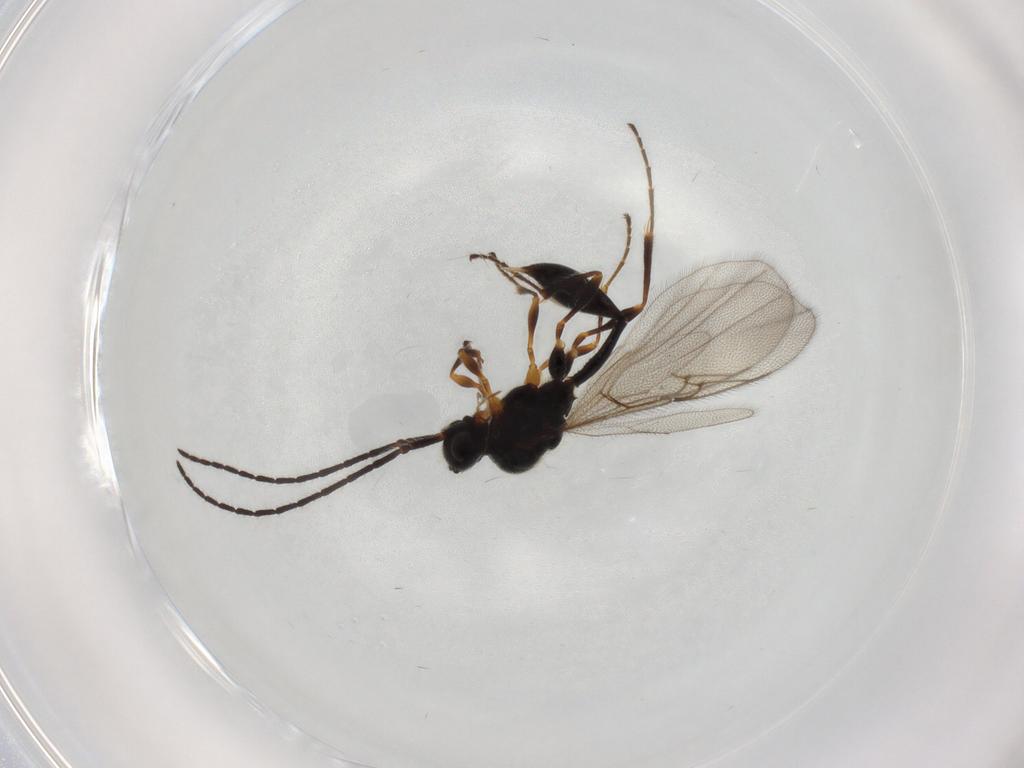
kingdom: Animalia
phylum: Arthropoda
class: Insecta
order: Hymenoptera
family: Diapriidae
